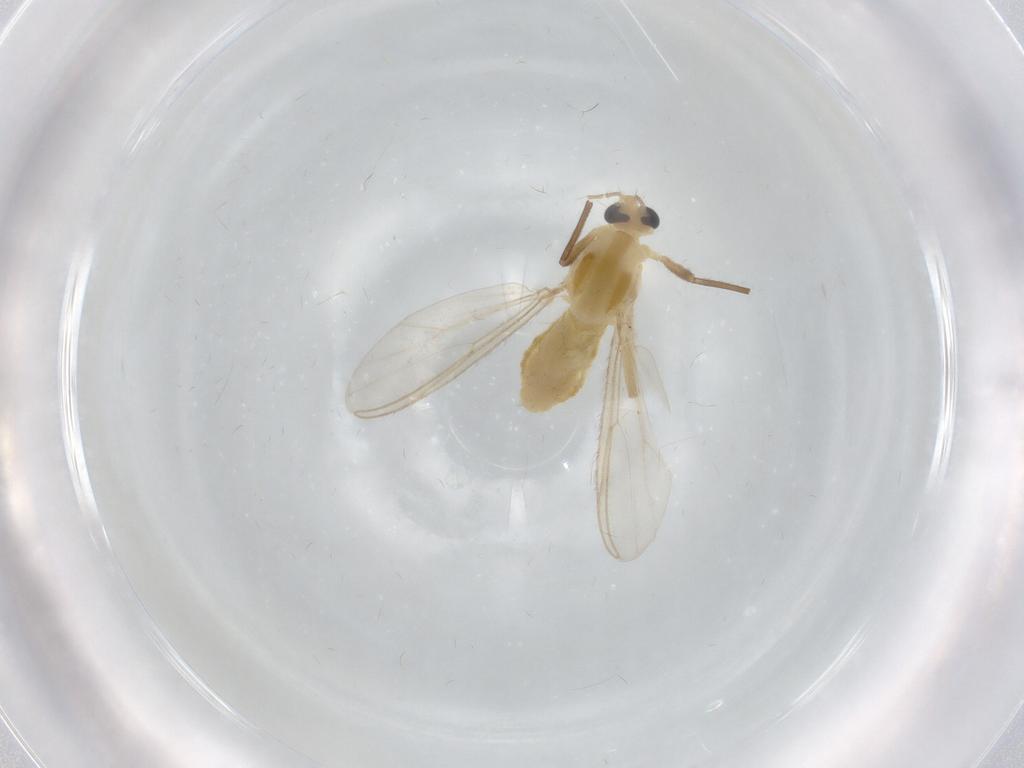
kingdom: Animalia
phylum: Arthropoda
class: Insecta
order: Diptera
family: Chironomidae
